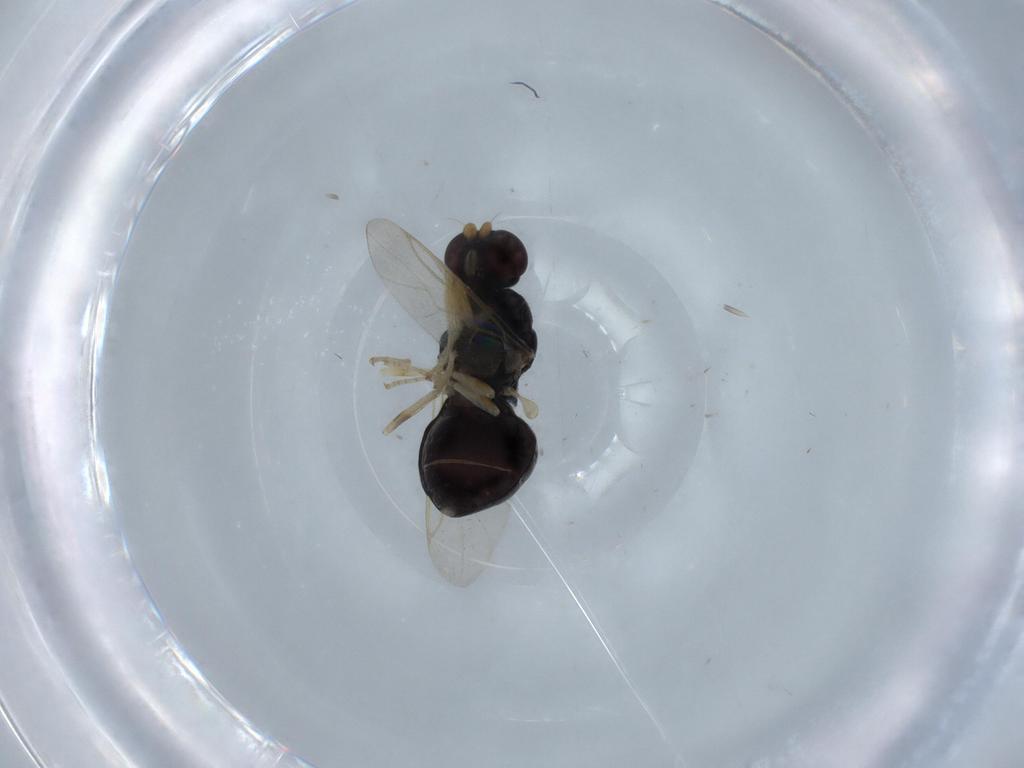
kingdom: Animalia
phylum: Arthropoda
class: Insecta
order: Diptera
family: Stratiomyidae
